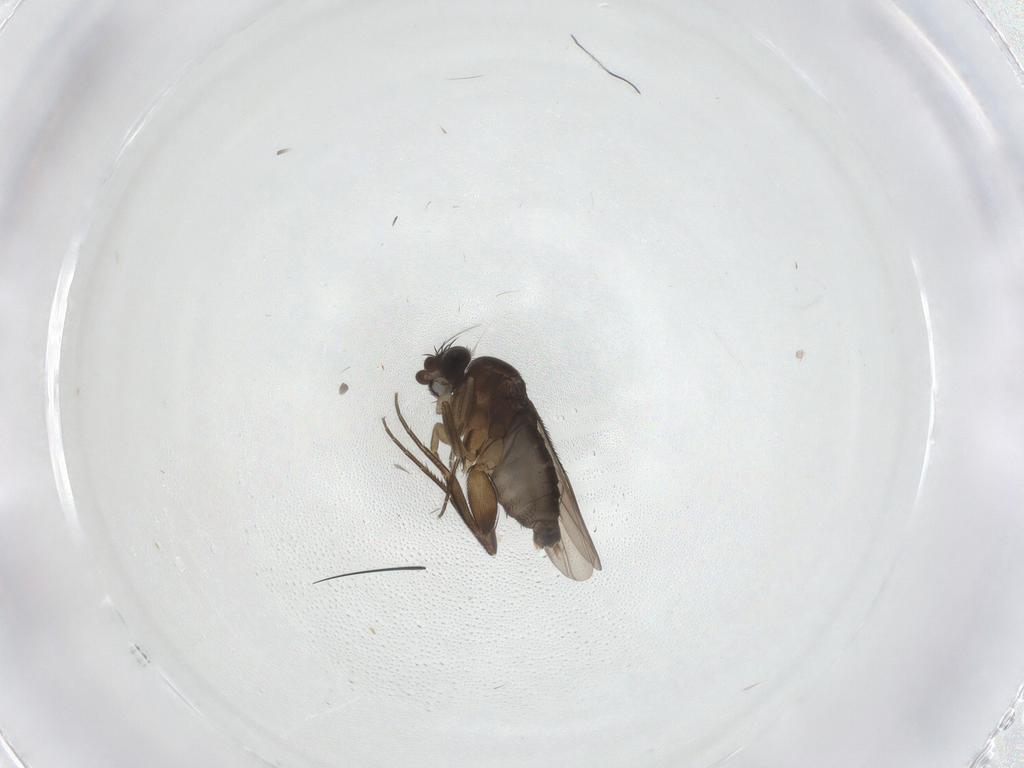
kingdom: Animalia
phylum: Arthropoda
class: Insecta
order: Diptera
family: Phoridae
